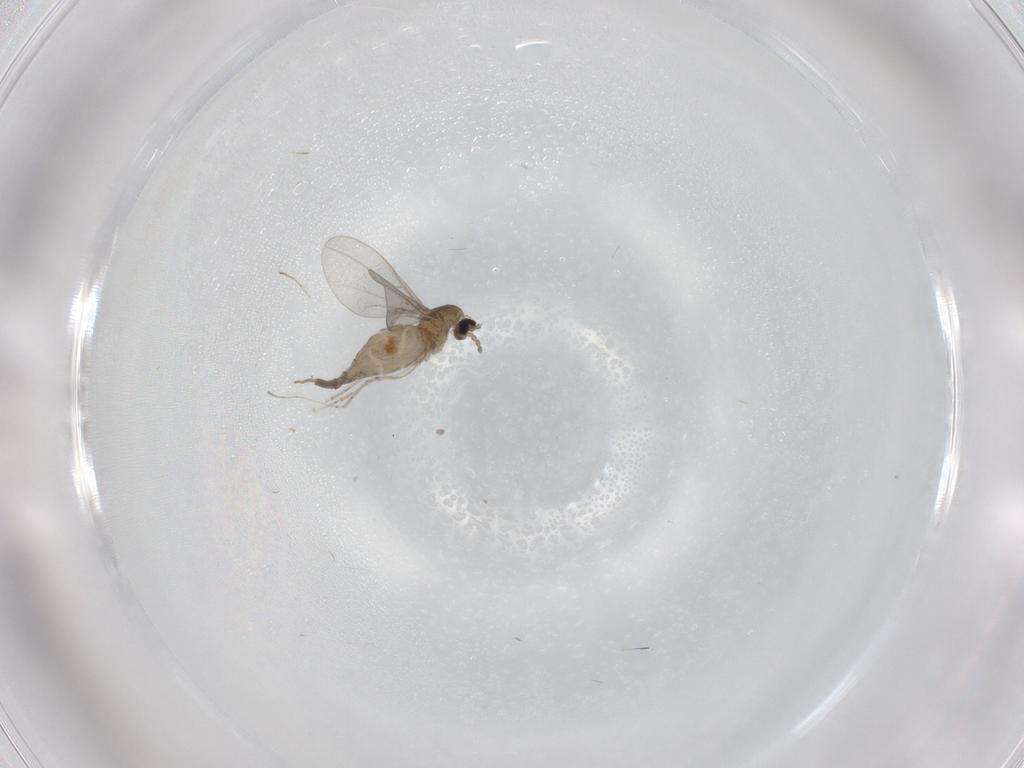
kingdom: Animalia
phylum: Arthropoda
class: Insecta
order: Diptera
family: Cecidomyiidae
